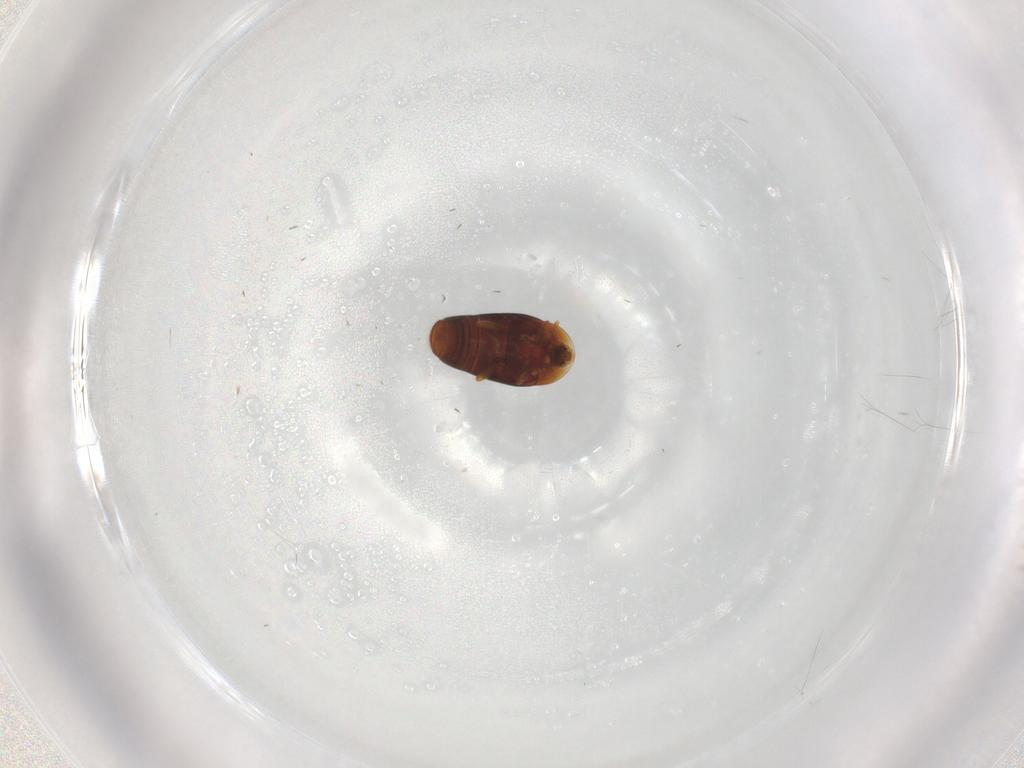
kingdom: Animalia
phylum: Arthropoda
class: Insecta
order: Coleoptera
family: Corylophidae
